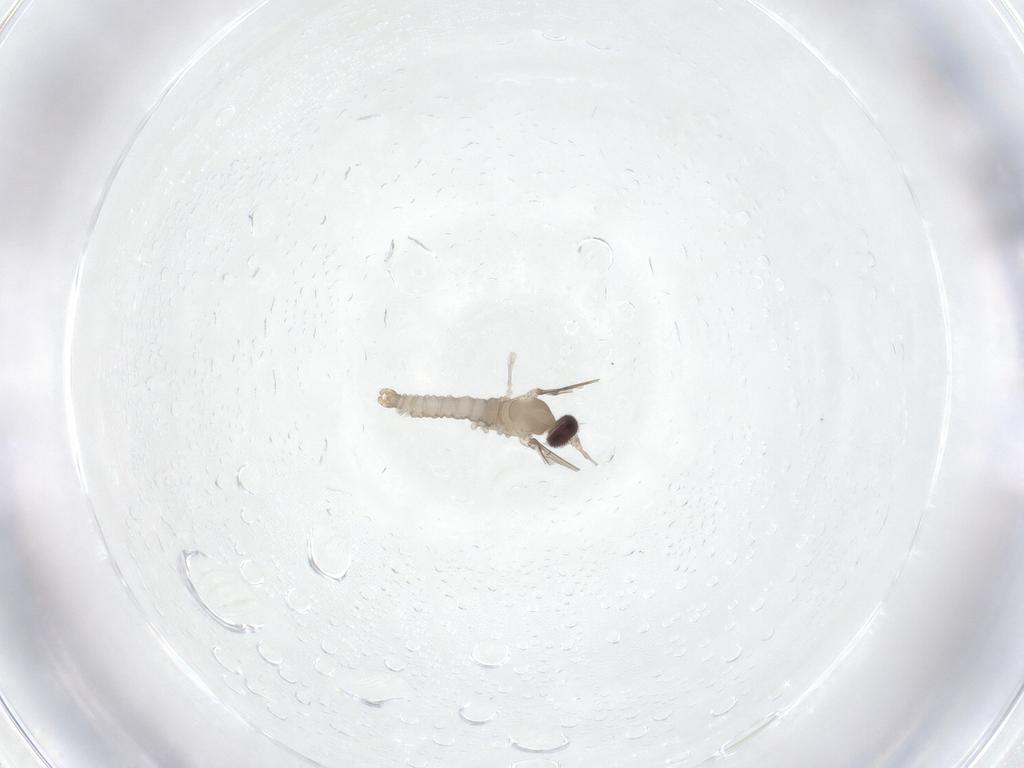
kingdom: Animalia
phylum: Arthropoda
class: Insecta
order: Diptera
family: Cecidomyiidae
